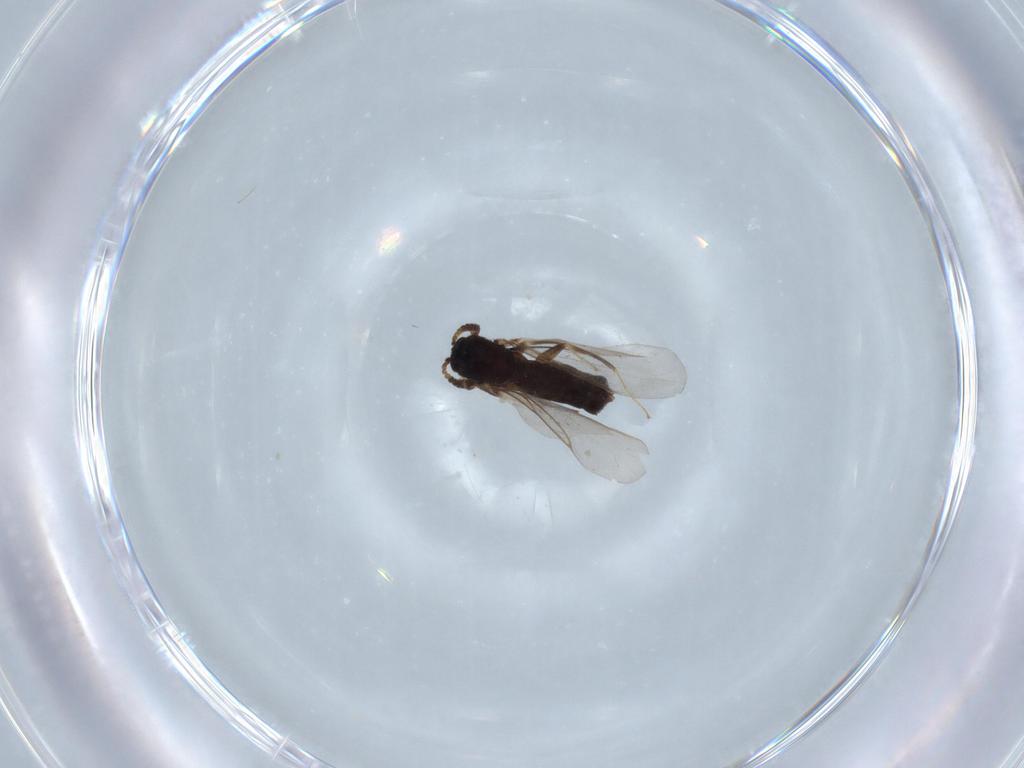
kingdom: Animalia
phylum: Arthropoda
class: Insecta
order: Diptera
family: Hybotidae
